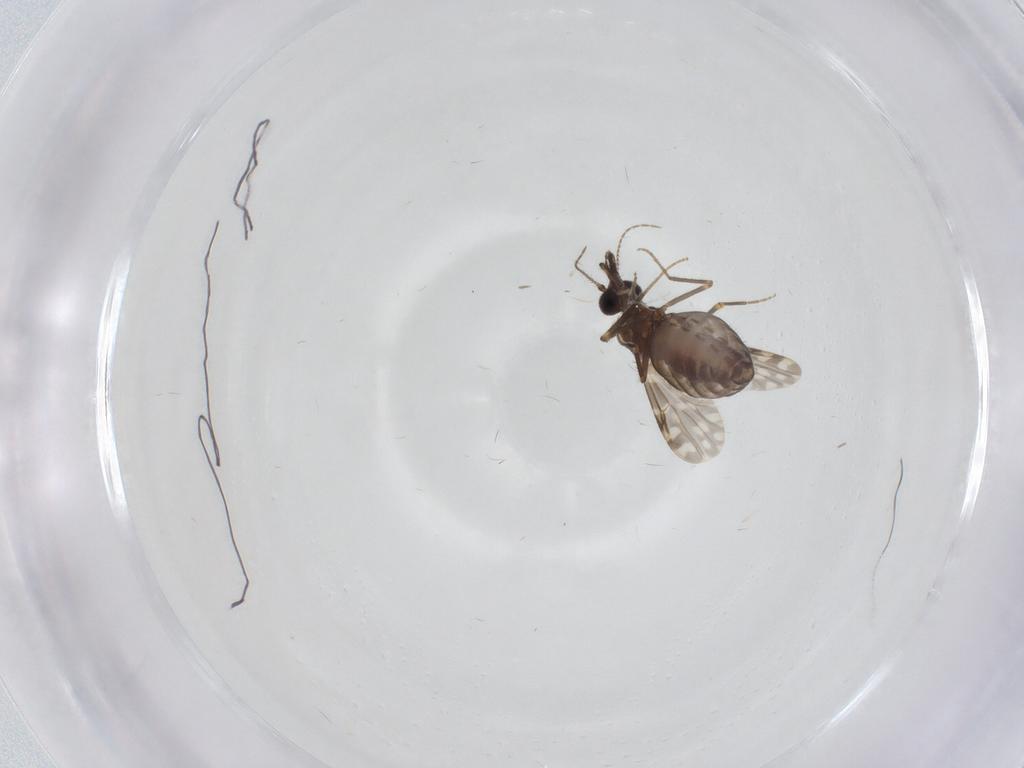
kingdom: Animalia
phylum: Arthropoda
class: Insecta
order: Diptera
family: Ceratopogonidae
